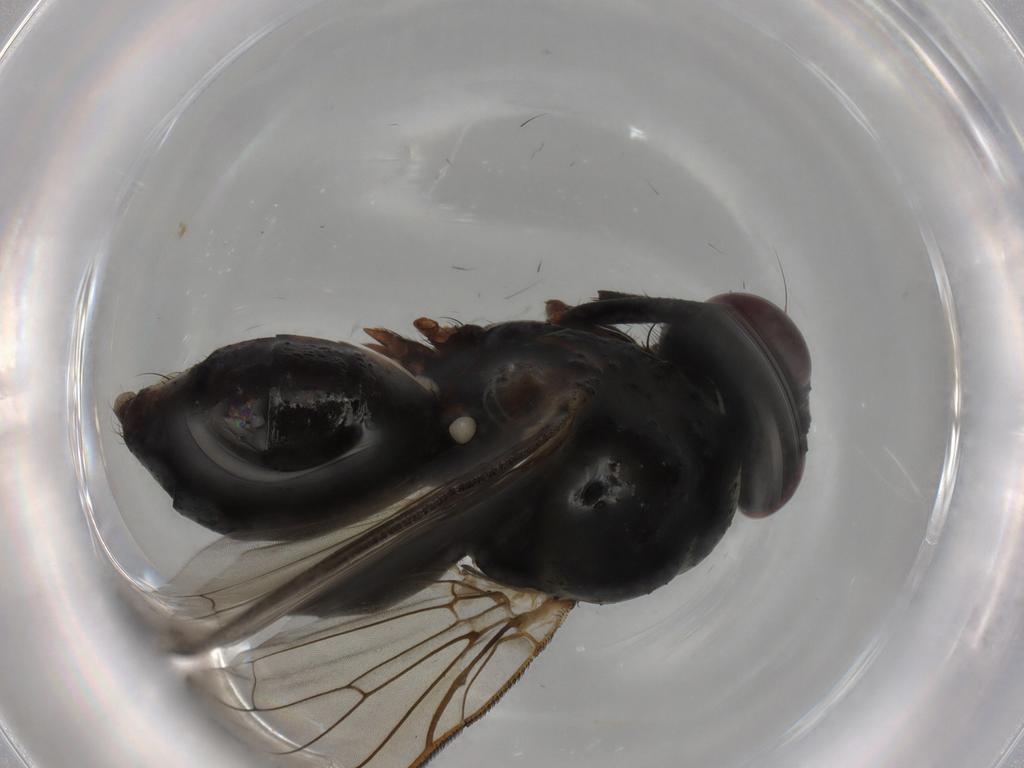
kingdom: Animalia
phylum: Arthropoda
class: Insecta
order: Diptera
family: Anthomyiidae
